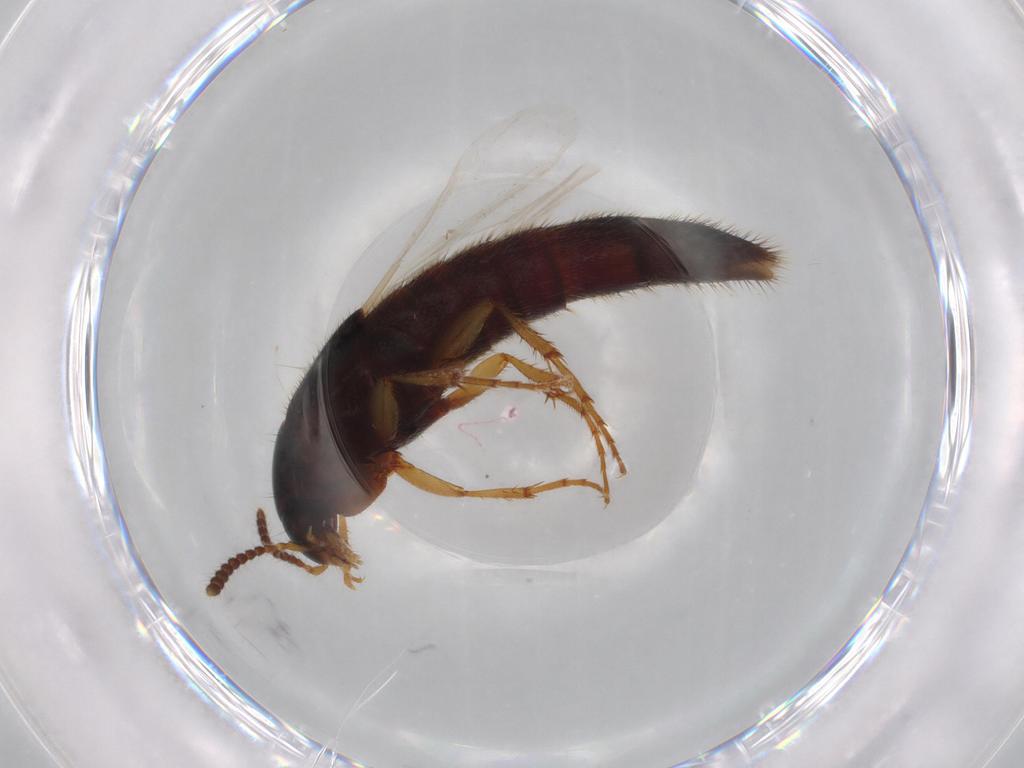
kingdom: Animalia
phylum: Arthropoda
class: Insecta
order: Coleoptera
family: Staphylinidae
